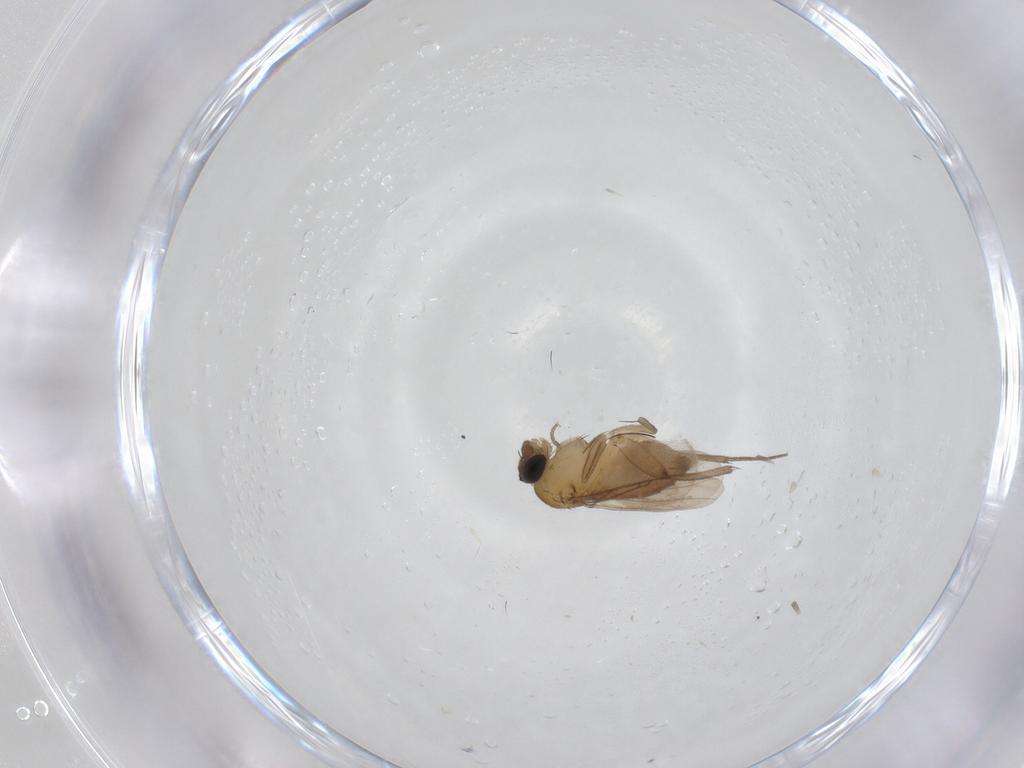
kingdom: Animalia
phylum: Arthropoda
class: Insecta
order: Diptera
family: Phoridae
